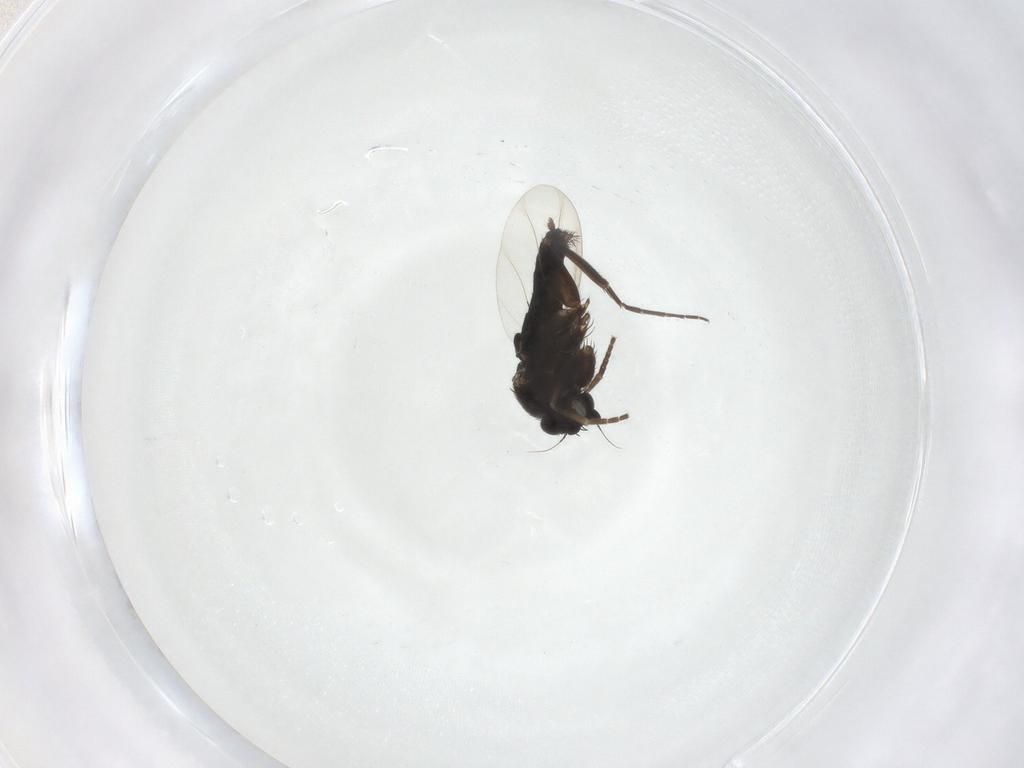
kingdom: Animalia
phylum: Arthropoda
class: Insecta
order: Diptera
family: Phoridae
